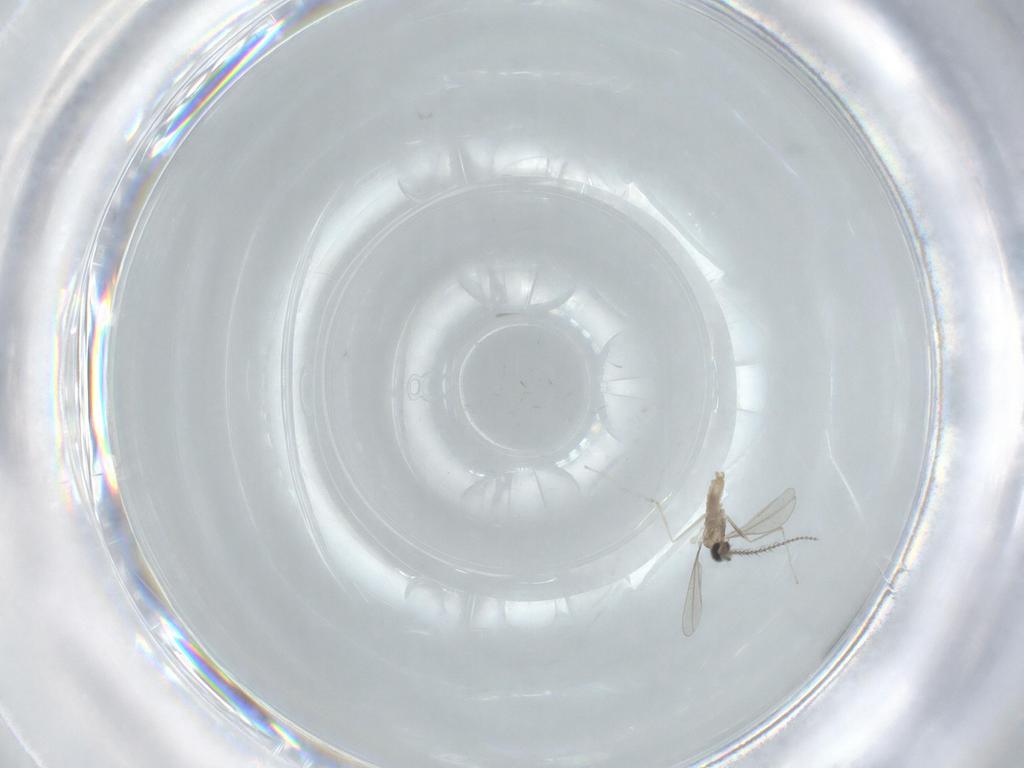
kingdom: Animalia
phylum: Arthropoda
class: Insecta
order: Diptera
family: Cecidomyiidae
